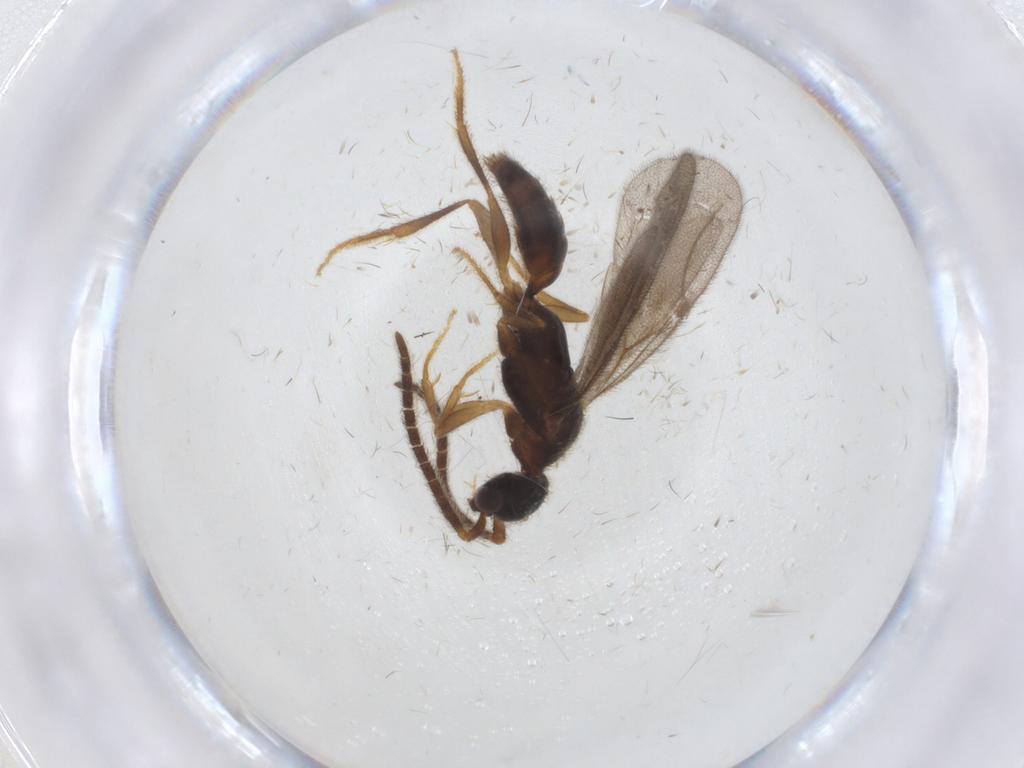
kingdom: Animalia
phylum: Arthropoda
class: Insecta
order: Hymenoptera
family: Bethylidae
